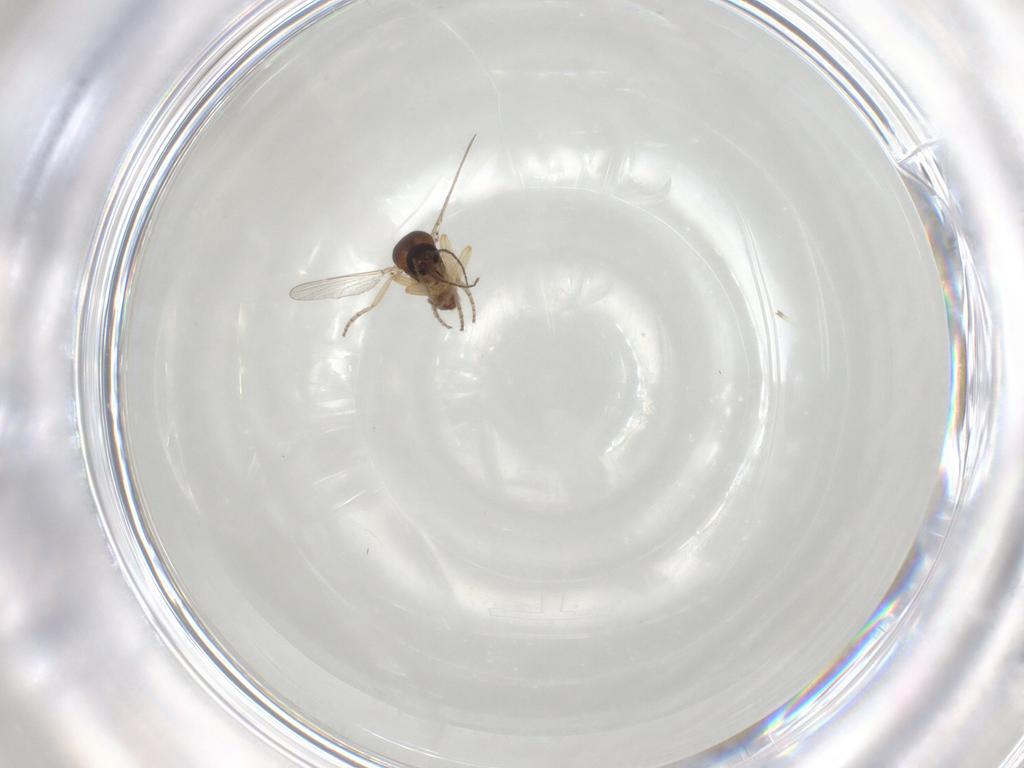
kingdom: Animalia
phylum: Arthropoda
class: Insecta
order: Diptera
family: Ceratopogonidae
